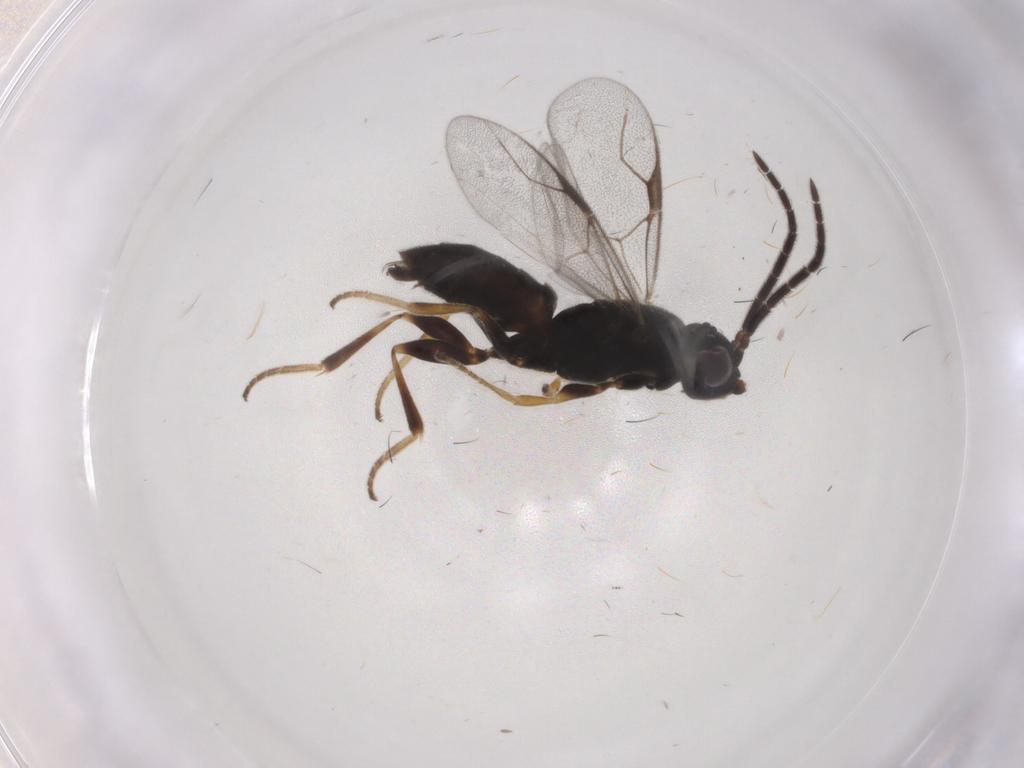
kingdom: Animalia
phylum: Arthropoda
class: Insecta
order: Hymenoptera
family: Dryinidae
